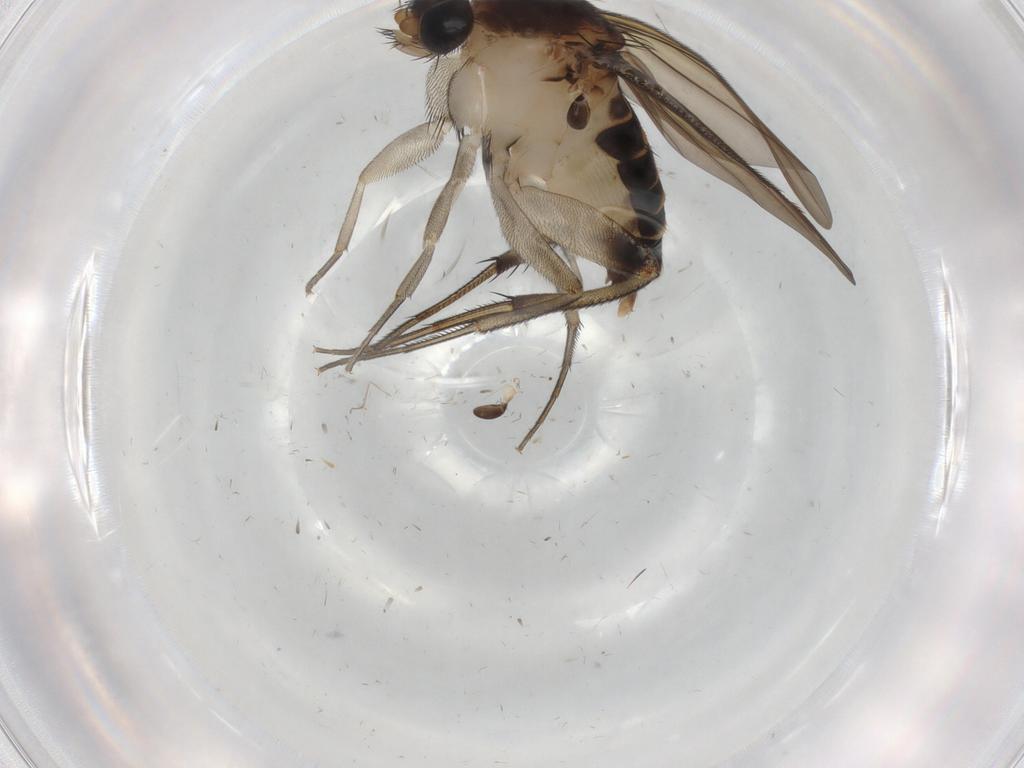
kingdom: Animalia
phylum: Arthropoda
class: Insecta
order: Diptera
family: Phoridae
